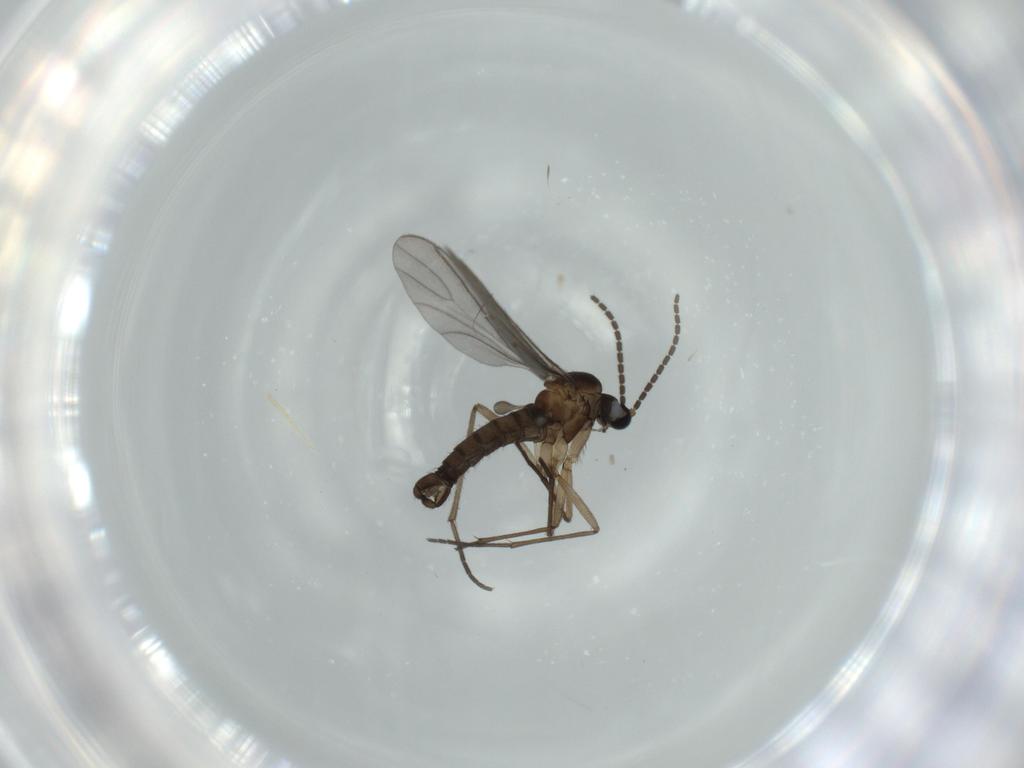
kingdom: Animalia
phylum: Arthropoda
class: Insecta
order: Diptera
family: Sciaridae
